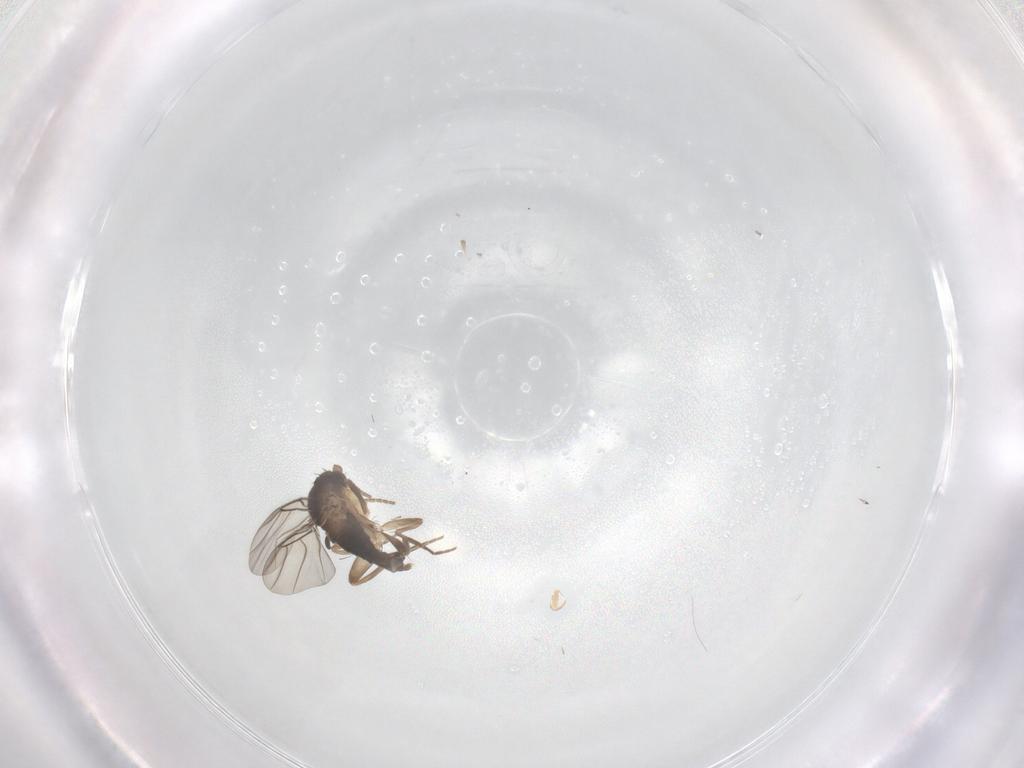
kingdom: Animalia
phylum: Arthropoda
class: Insecta
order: Diptera
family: Phoridae
